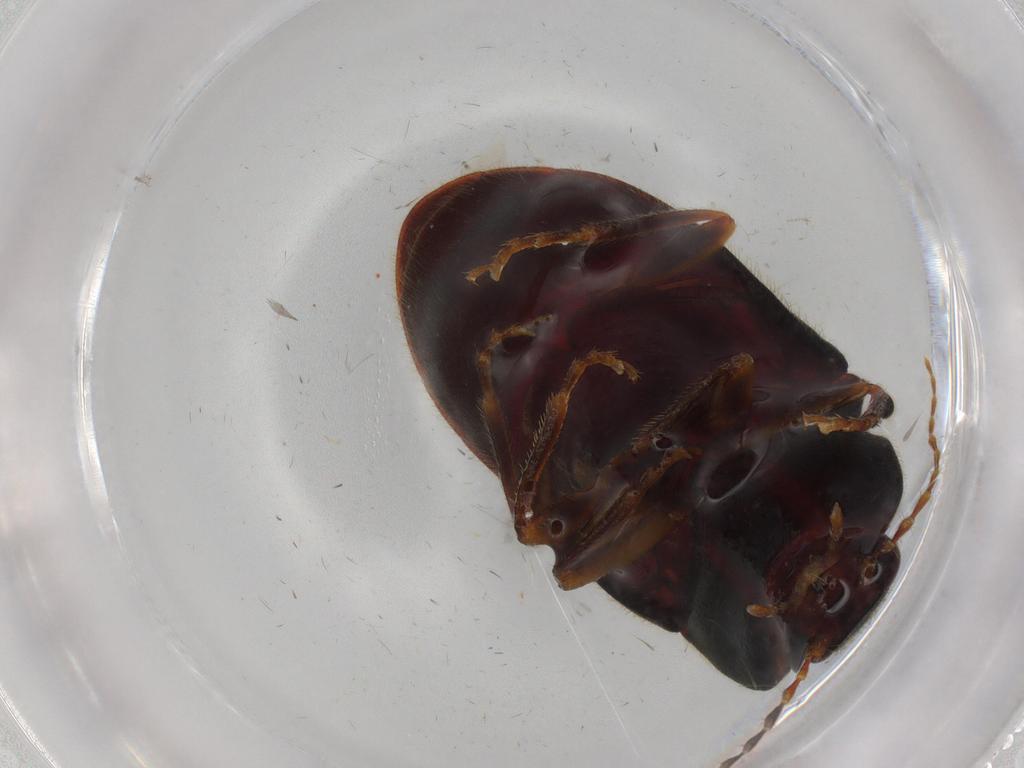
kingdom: Animalia
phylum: Arthropoda
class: Insecta
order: Coleoptera
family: Elateridae
